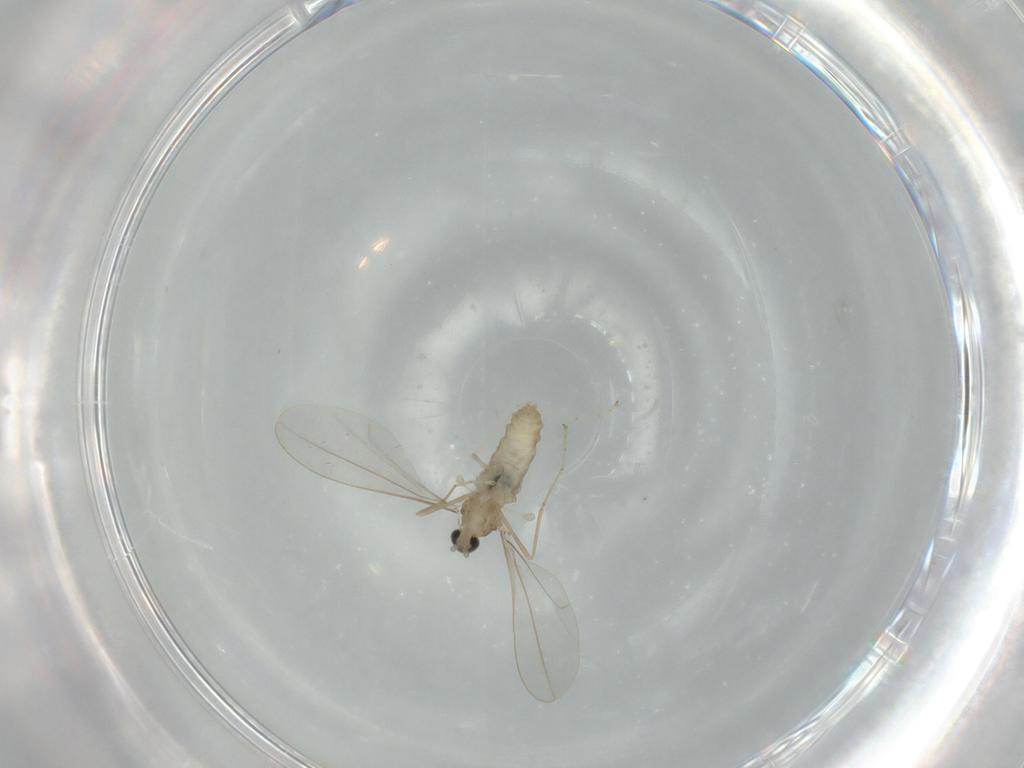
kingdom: Animalia
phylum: Arthropoda
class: Insecta
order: Diptera
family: Cecidomyiidae
